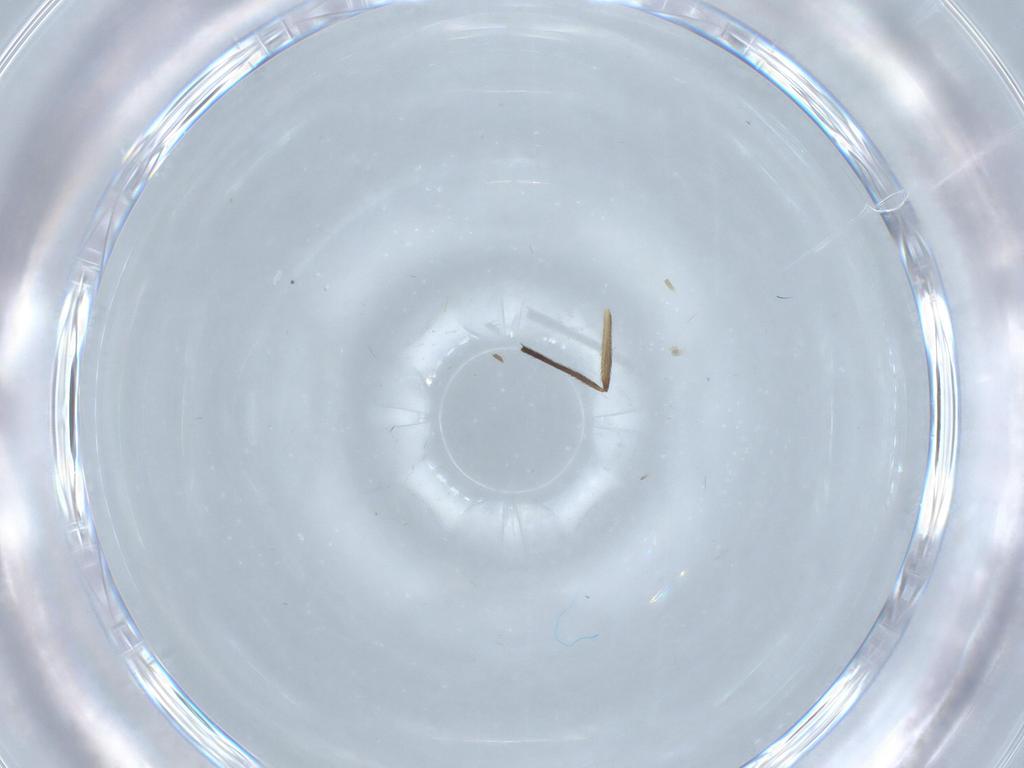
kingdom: Animalia
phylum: Arthropoda
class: Insecta
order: Diptera
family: Chironomidae
